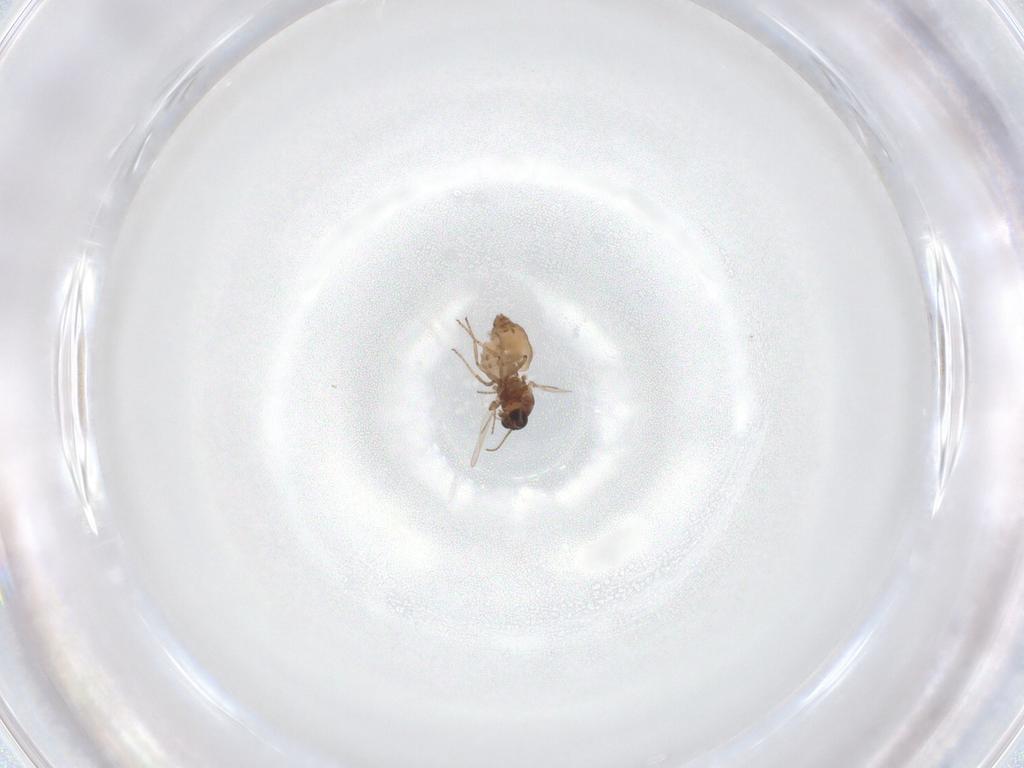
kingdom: Animalia
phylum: Arthropoda
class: Insecta
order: Diptera
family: Ceratopogonidae
